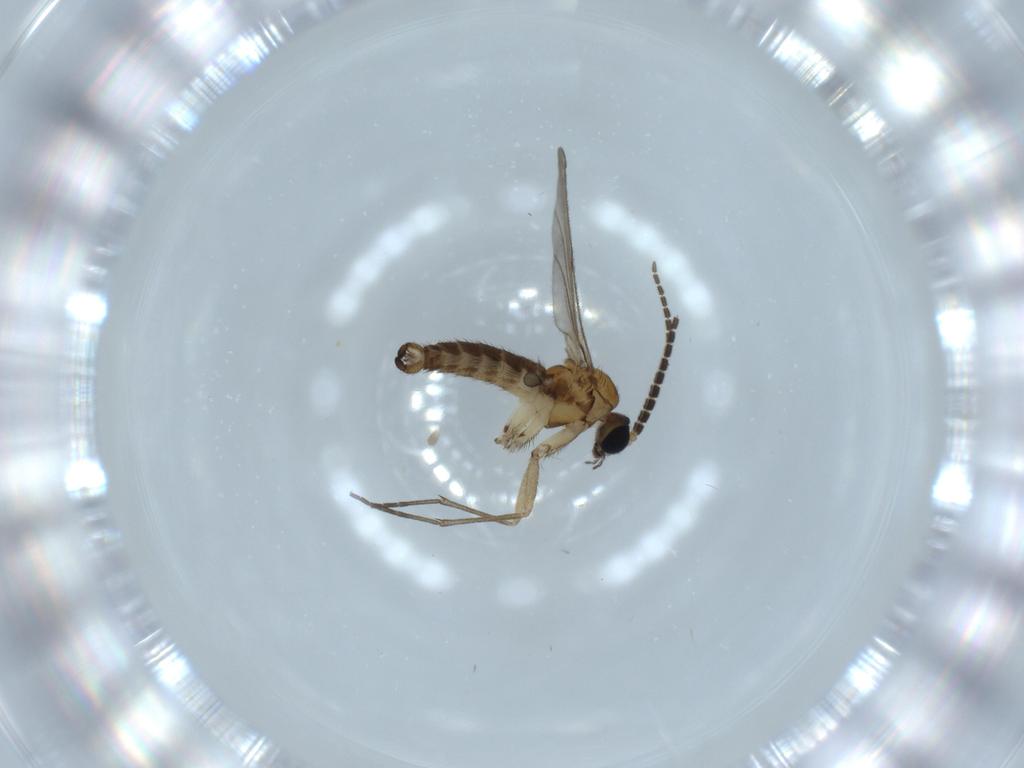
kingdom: Animalia
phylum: Arthropoda
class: Insecta
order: Diptera
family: Sciaridae
